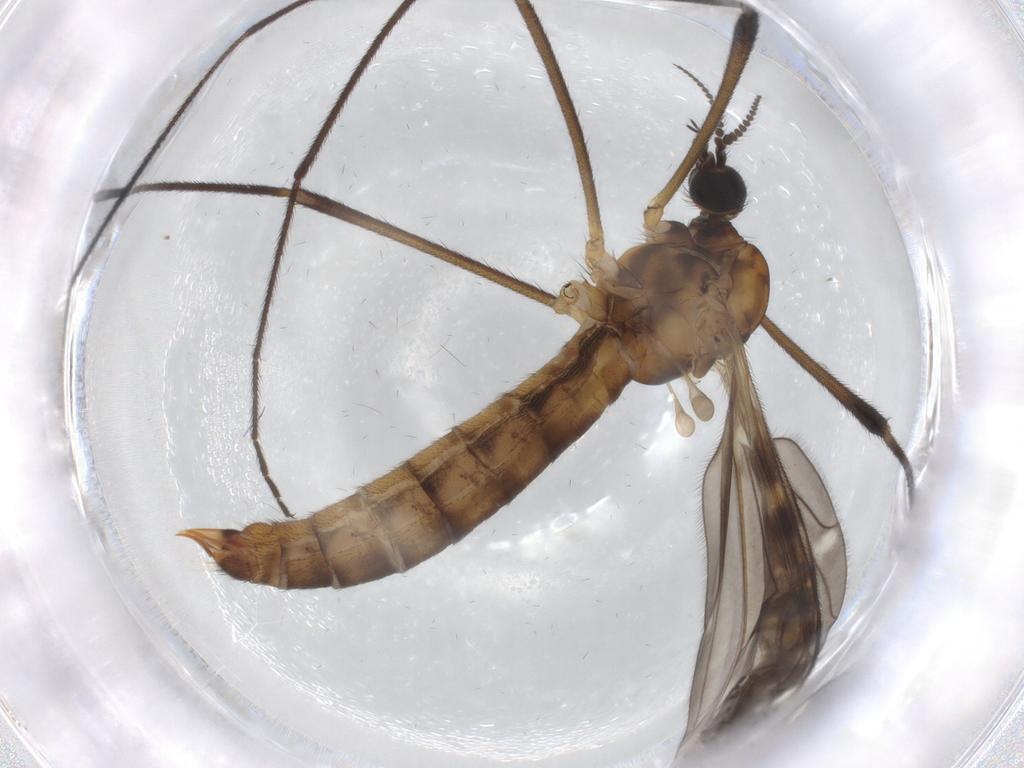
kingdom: Animalia
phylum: Arthropoda
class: Insecta
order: Diptera
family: Limoniidae
